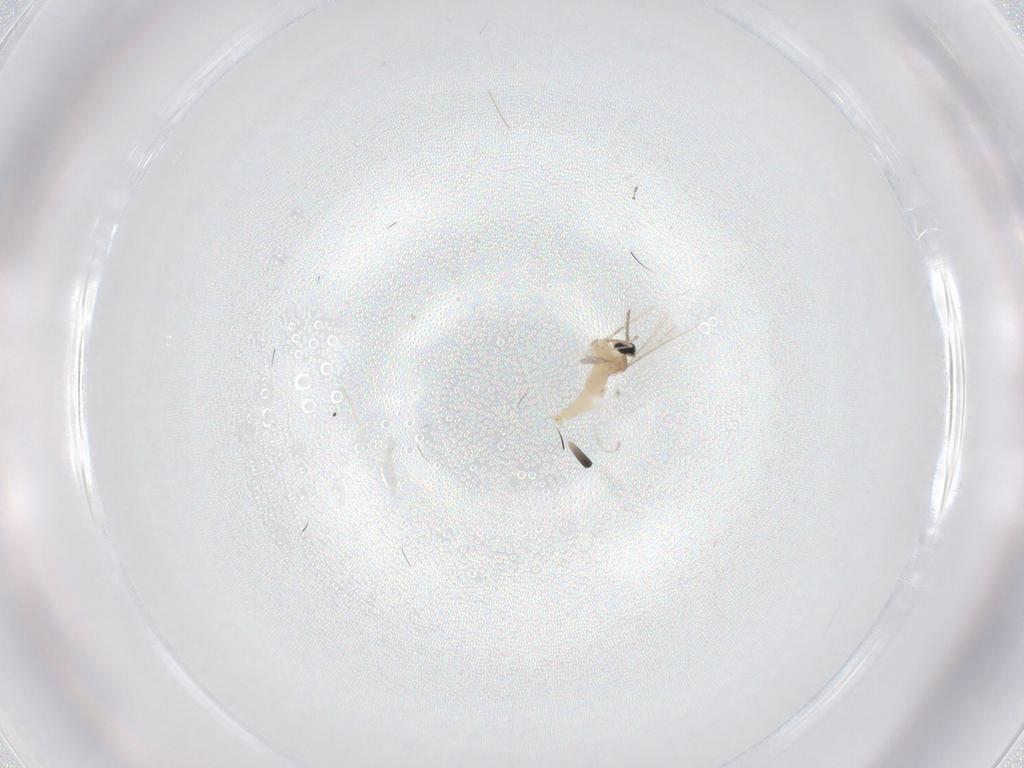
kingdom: Animalia
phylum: Arthropoda
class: Insecta
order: Diptera
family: Cecidomyiidae
